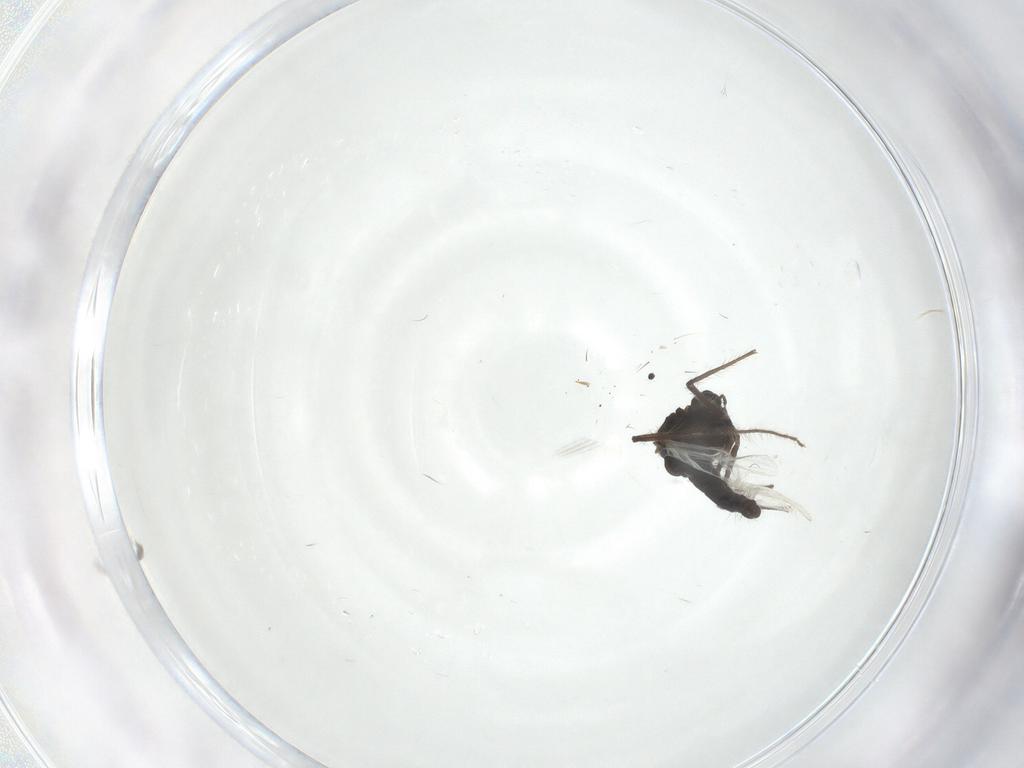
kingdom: Animalia
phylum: Arthropoda
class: Insecta
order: Diptera
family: Chironomidae
